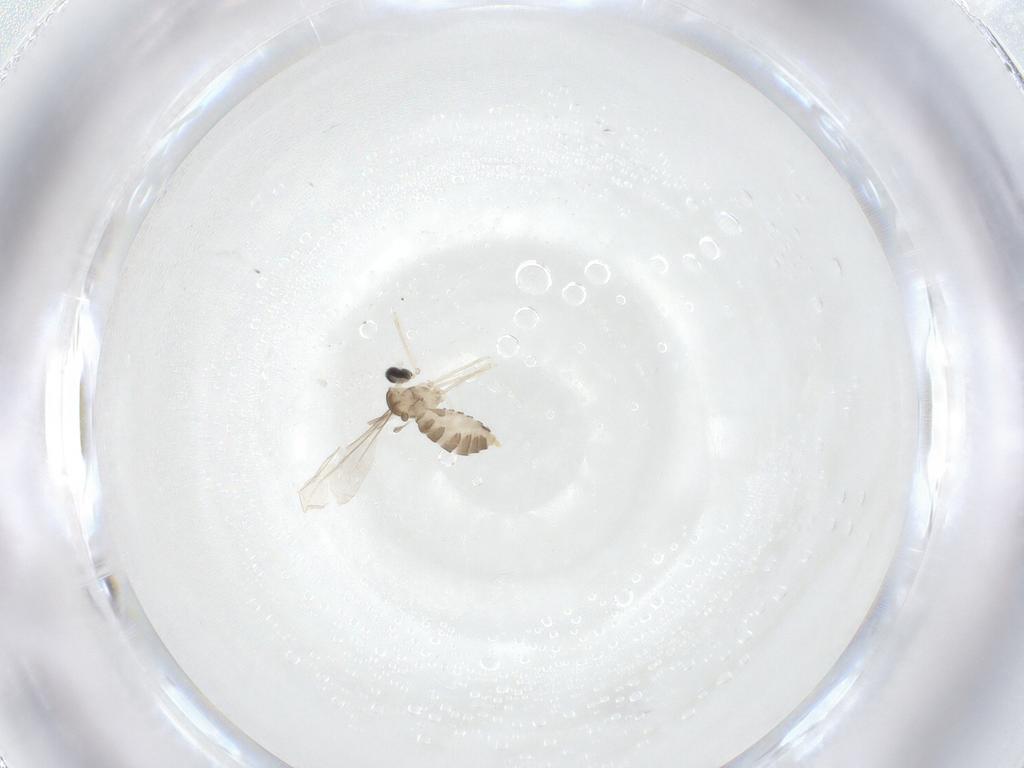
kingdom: Animalia
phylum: Arthropoda
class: Insecta
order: Diptera
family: Cecidomyiidae
